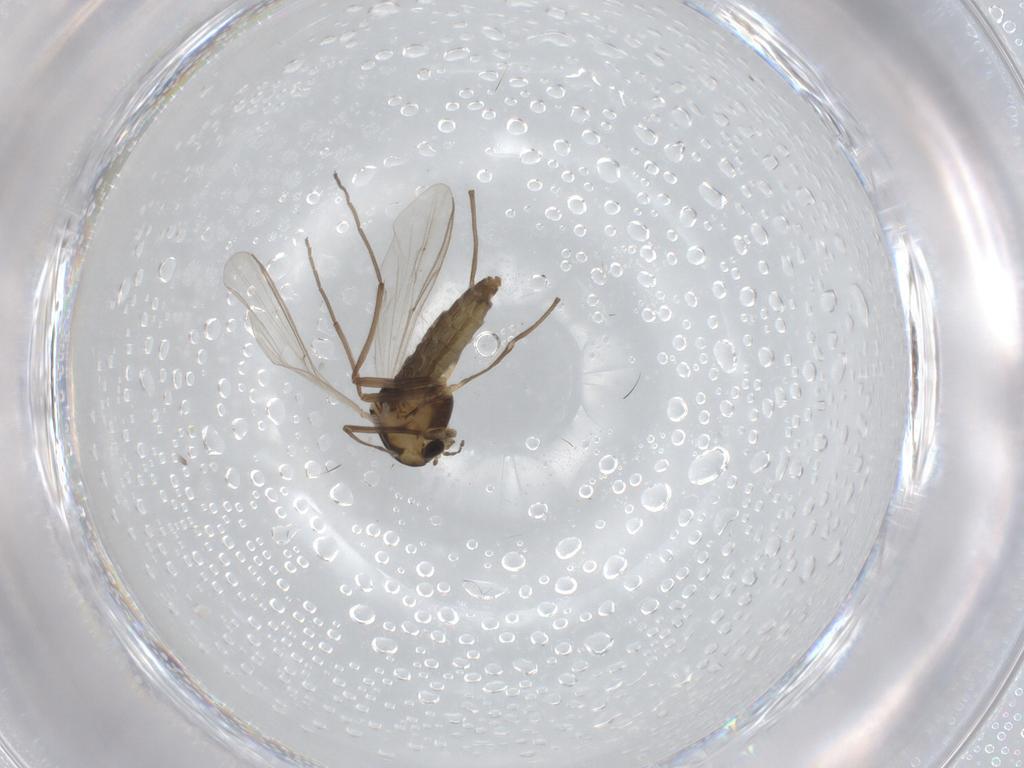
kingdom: Animalia
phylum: Arthropoda
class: Insecta
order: Diptera
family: Chironomidae
